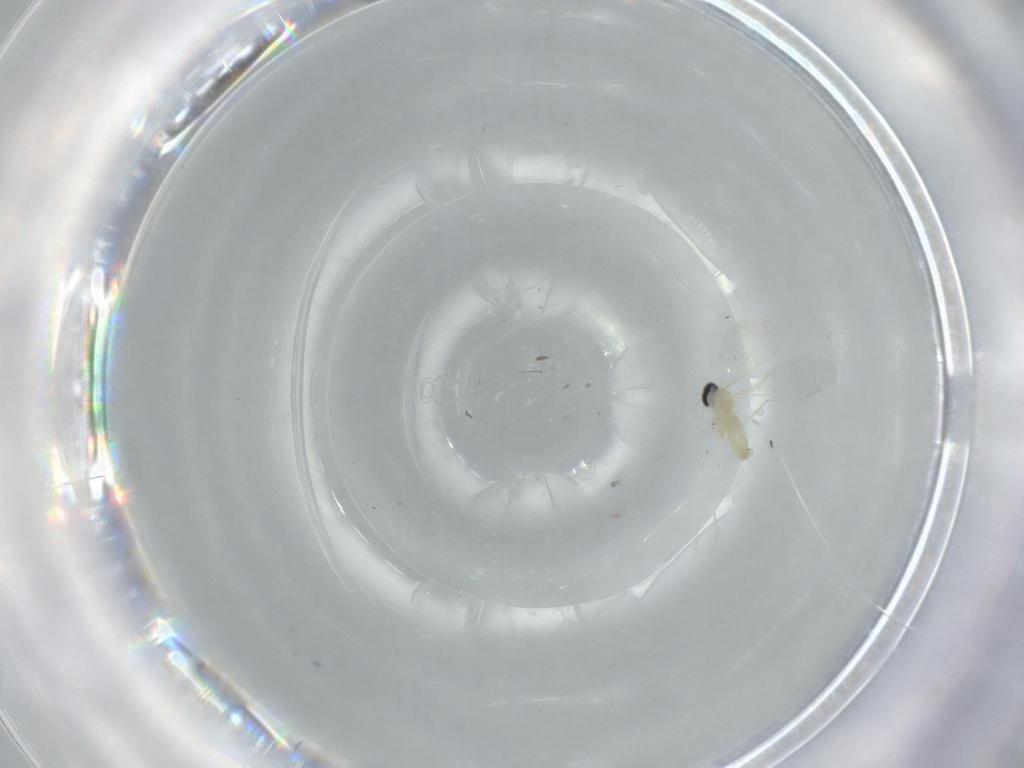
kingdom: Animalia
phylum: Arthropoda
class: Insecta
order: Diptera
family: Cecidomyiidae
